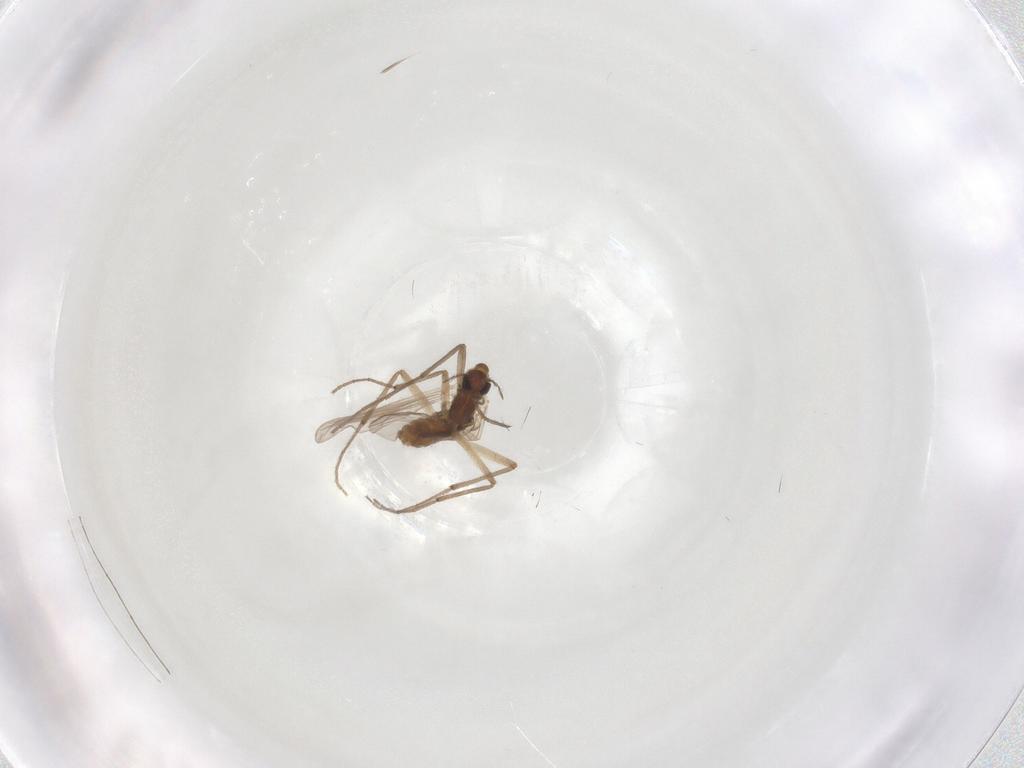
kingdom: Animalia
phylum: Arthropoda
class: Insecta
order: Diptera
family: Chironomidae
